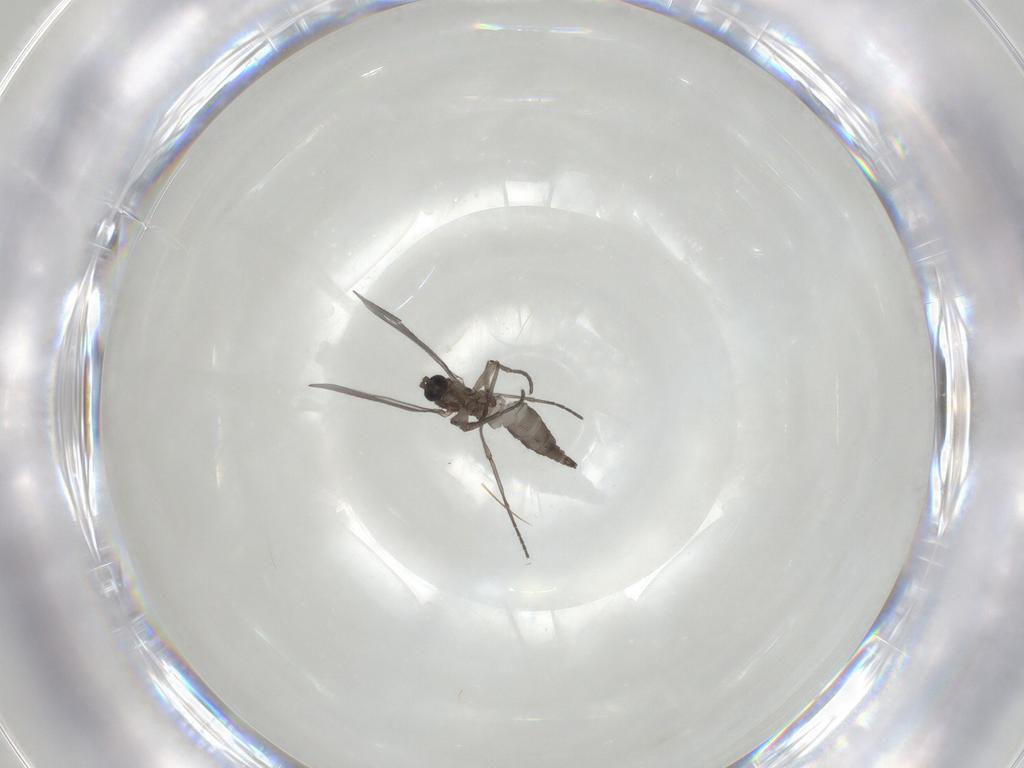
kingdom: Animalia
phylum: Arthropoda
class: Insecta
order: Diptera
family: Sciaridae
